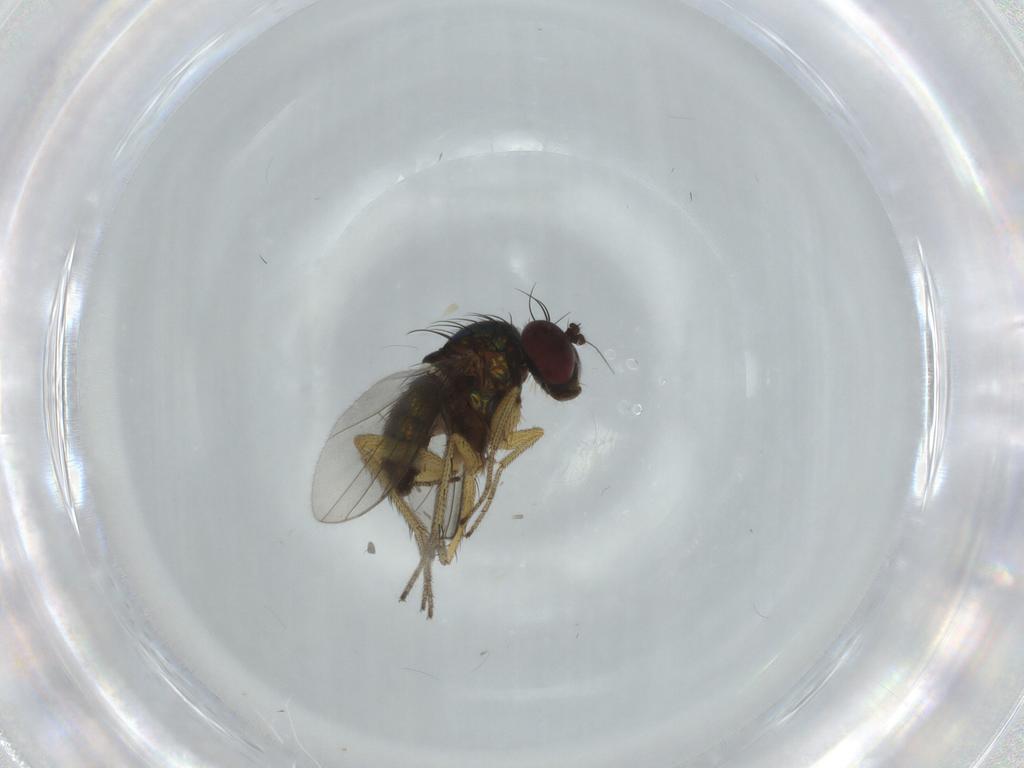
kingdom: Animalia
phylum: Arthropoda
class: Insecta
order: Diptera
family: Dolichopodidae
